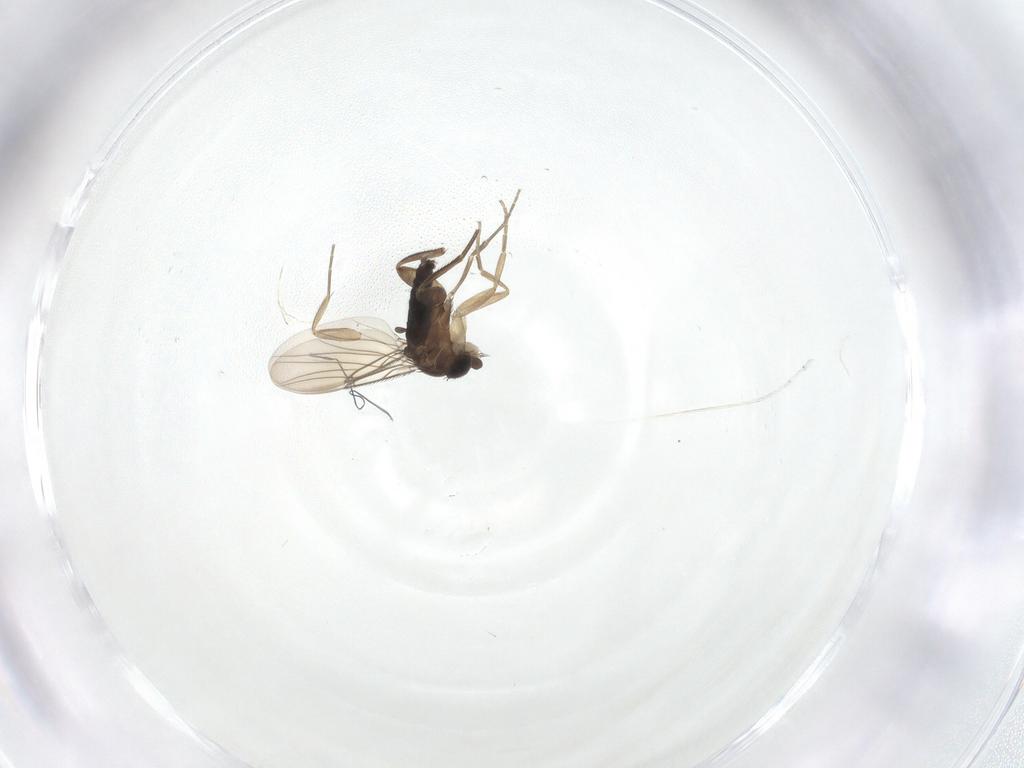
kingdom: Animalia
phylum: Arthropoda
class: Insecta
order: Diptera
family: Phoridae
